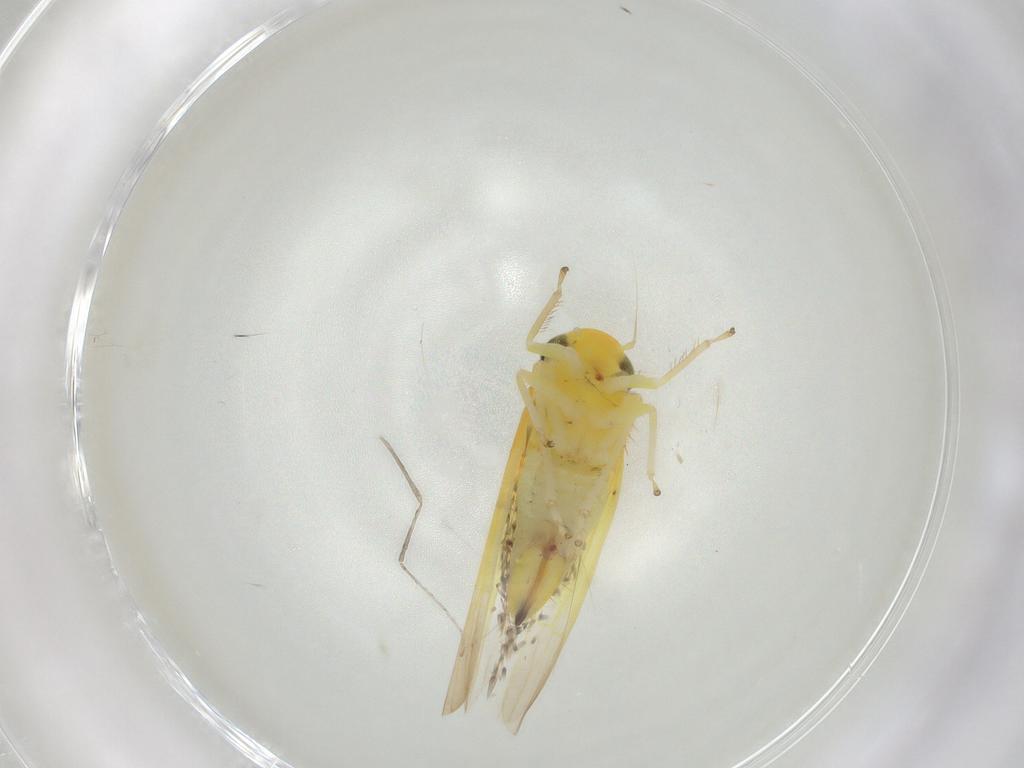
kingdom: Animalia
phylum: Arthropoda
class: Insecta
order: Hemiptera
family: Cicadellidae
